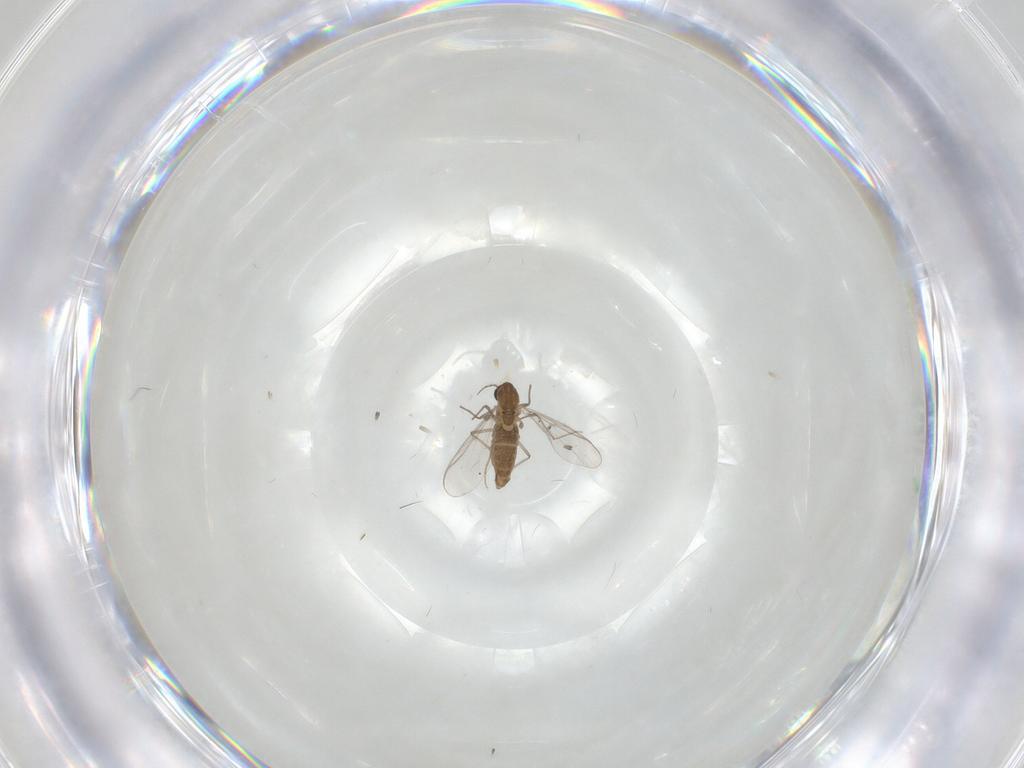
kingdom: Animalia
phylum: Arthropoda
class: Insecta
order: Diptera
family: Chironomidae
